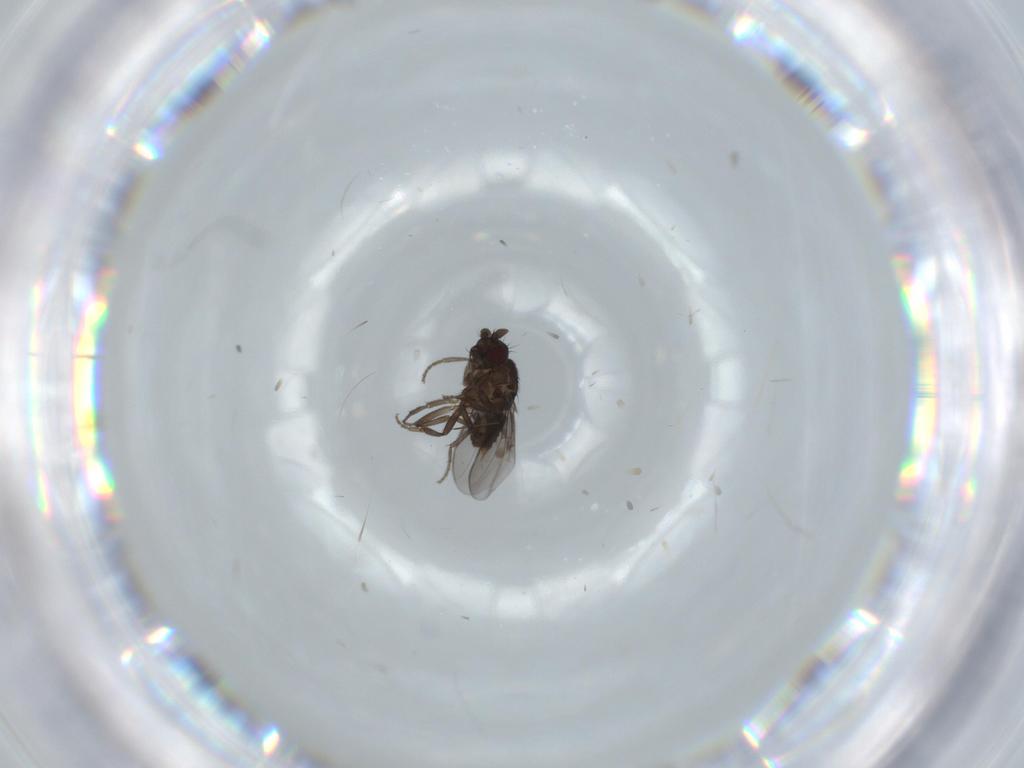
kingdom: Animalia
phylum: Arthropoda
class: Insecta
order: Diptera
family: Sphaeroceridae
